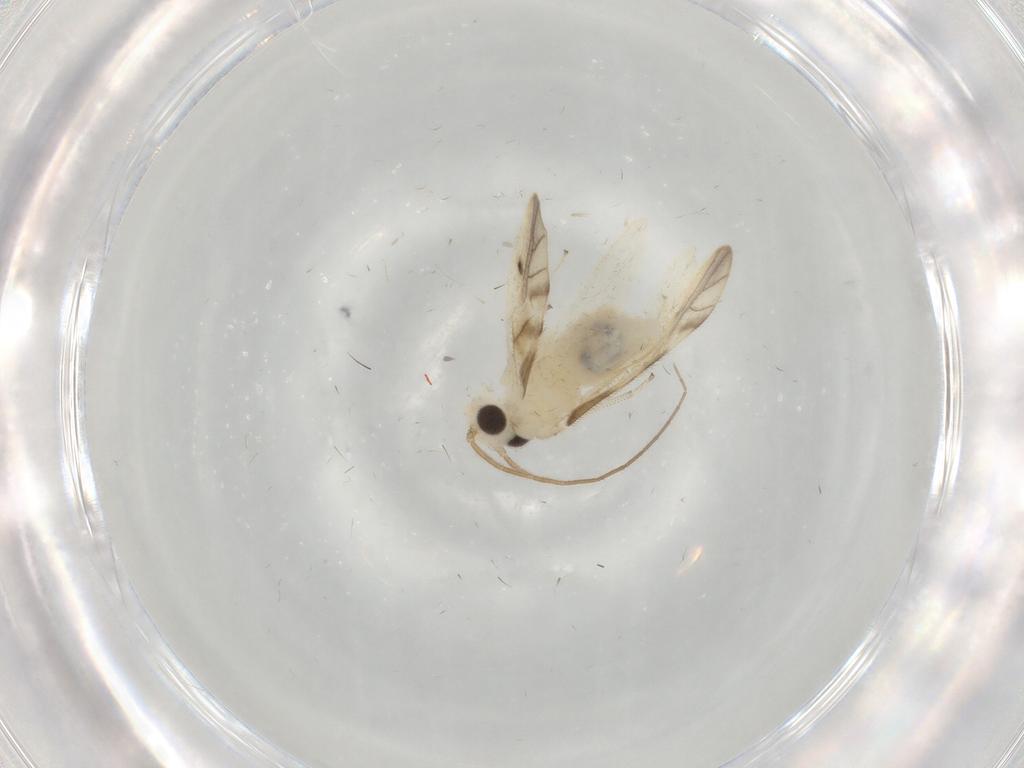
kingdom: Animalia
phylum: Arthropoda
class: Insecta
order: Psocodea
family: Caeciliusidae
